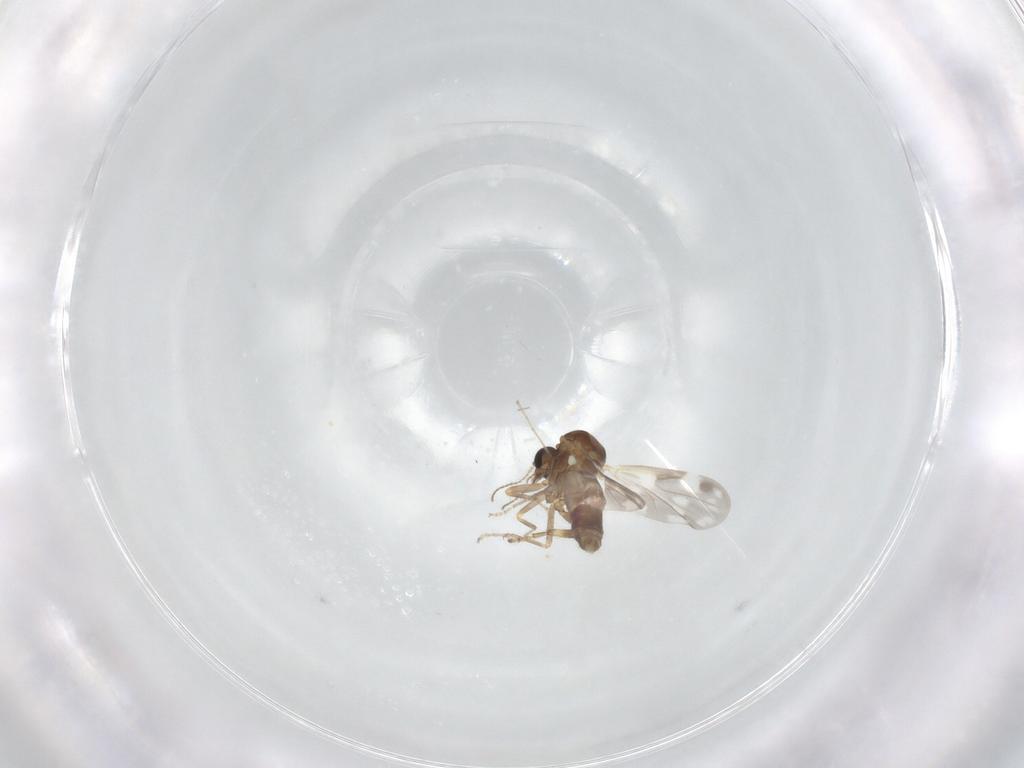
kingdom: Animalia
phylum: Arthropoda
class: Insecta
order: Diptera
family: Ceratopogonidae
